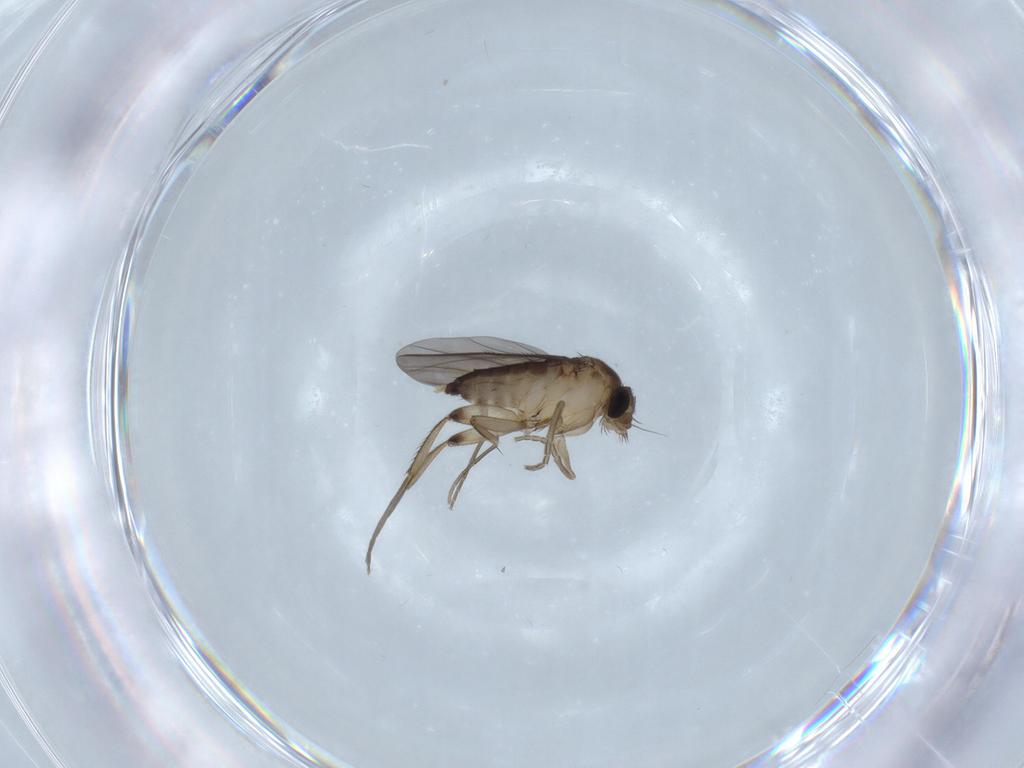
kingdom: Animalia
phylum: Arthropoda
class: Insecta
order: Diptera
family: Phoridae
